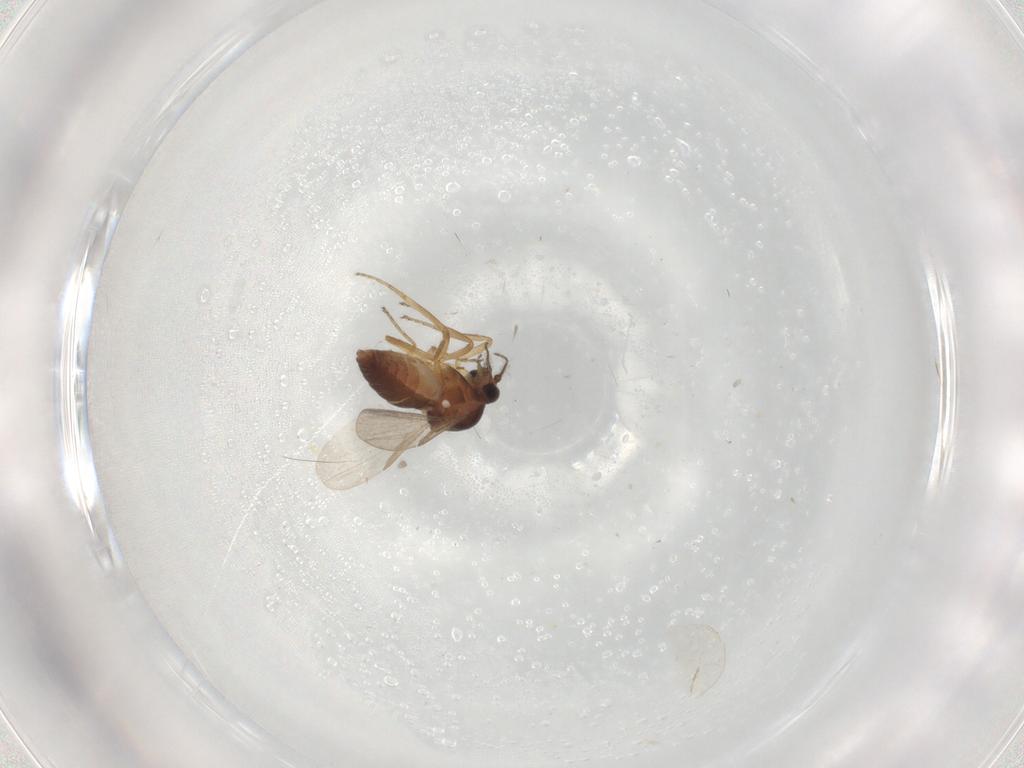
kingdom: Animalia
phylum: Arthropoda
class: Insecta
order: Diptera
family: Ceratopogonidae
